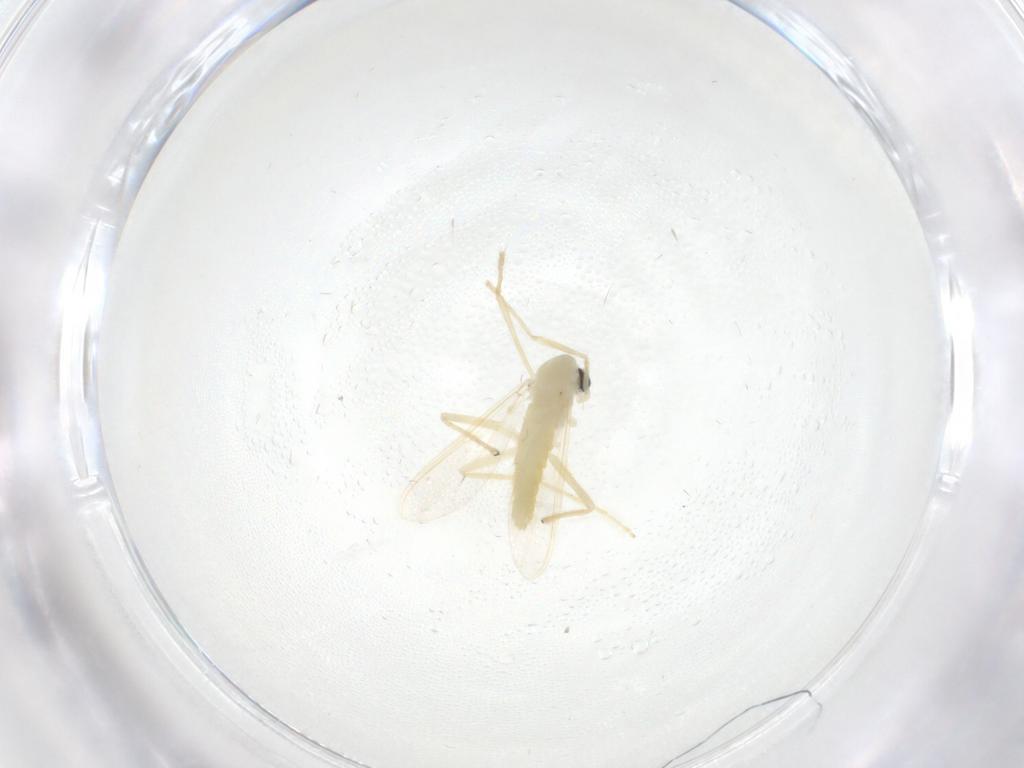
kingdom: Animalia
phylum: Arthropoda
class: Insecta
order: Diptera
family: Chironomidae
